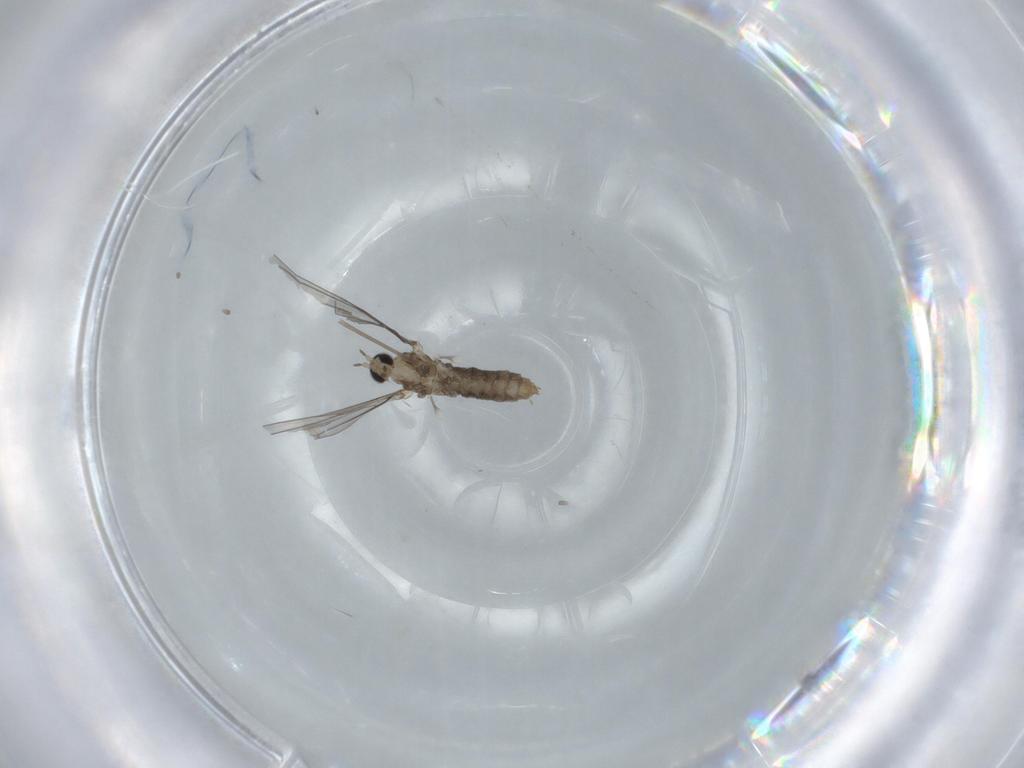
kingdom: Animalia
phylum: Arthropoda
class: Insecta
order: Diptera
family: Cecidomyiidae
